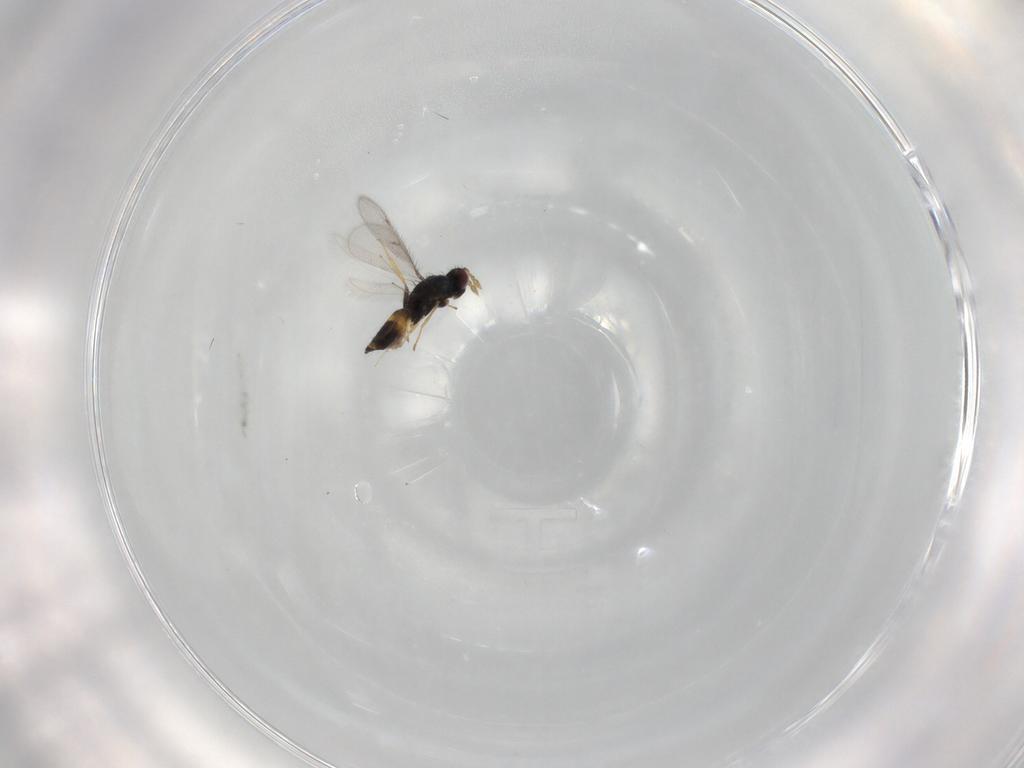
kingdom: Animalia
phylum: Arthropoda
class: Insecta
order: Hymenoptera
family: Eulophidae
